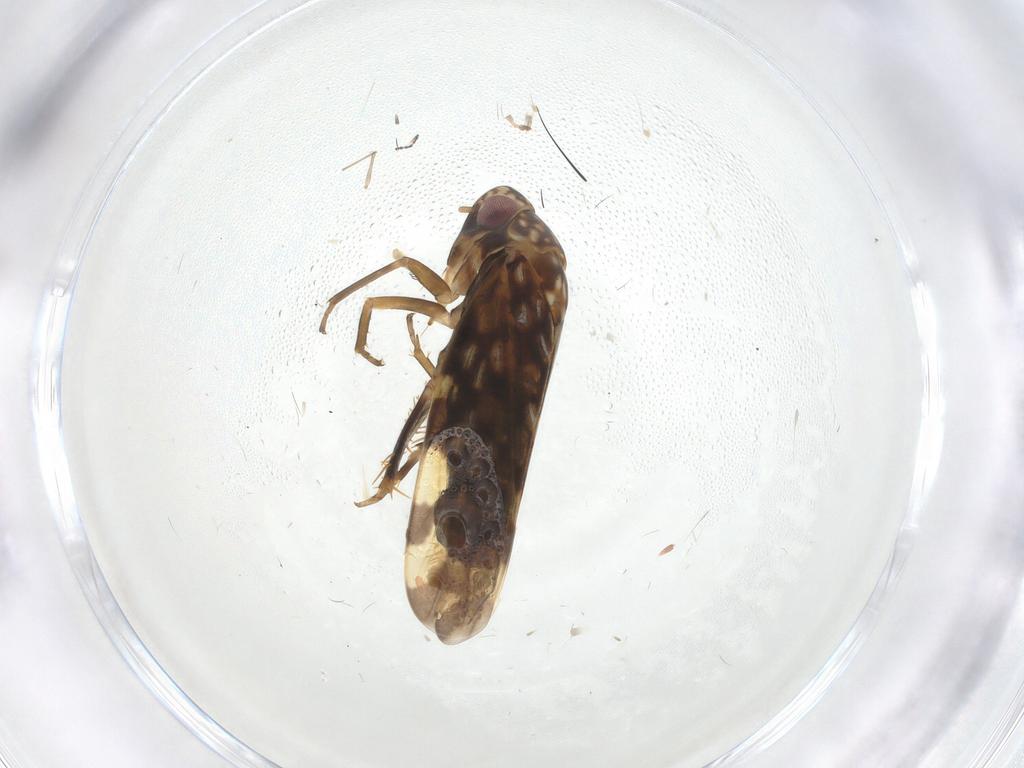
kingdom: Animalia
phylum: Arthropoda
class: Insecta
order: Hemiptera
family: Cicadellidae
